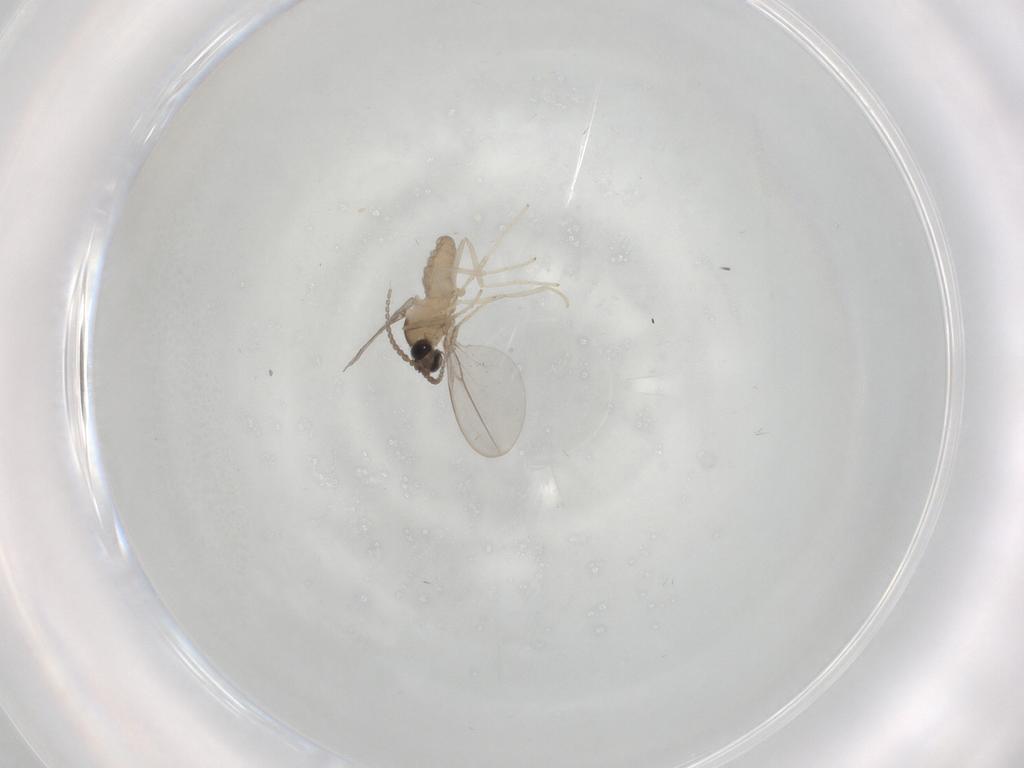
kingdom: Animalia
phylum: Arthropoda
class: Insecta
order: Diptera
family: Cecidomyiidae
